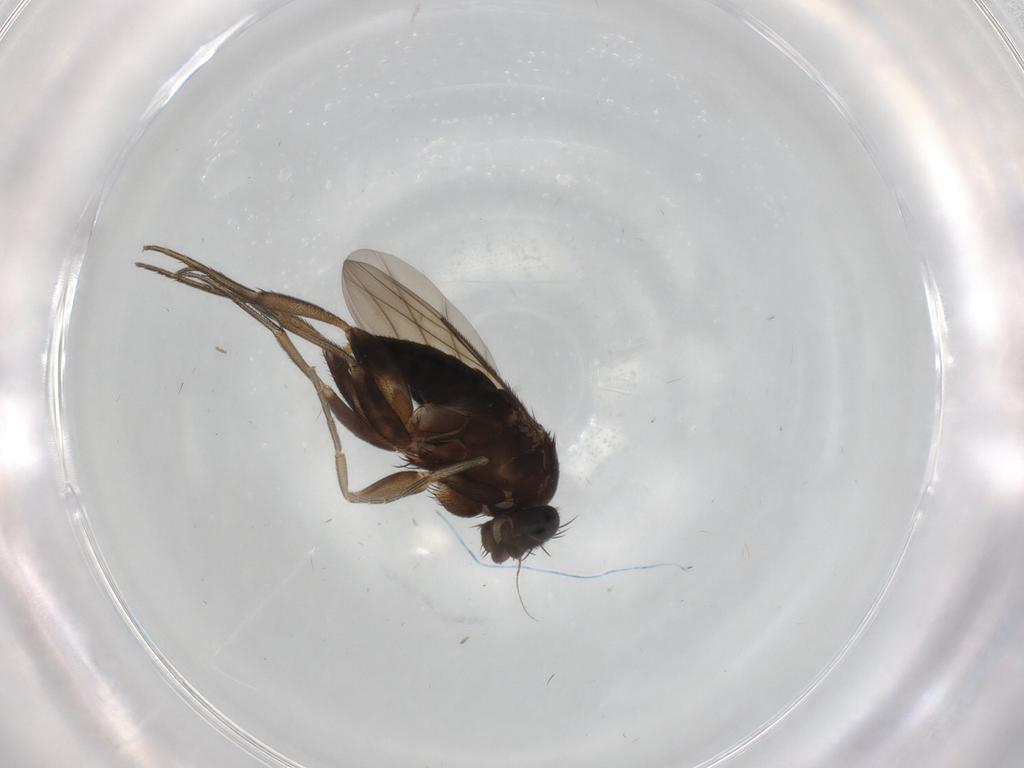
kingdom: Animalia
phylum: Arthropoda
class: Insecta
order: Diptera
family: Phoridae
